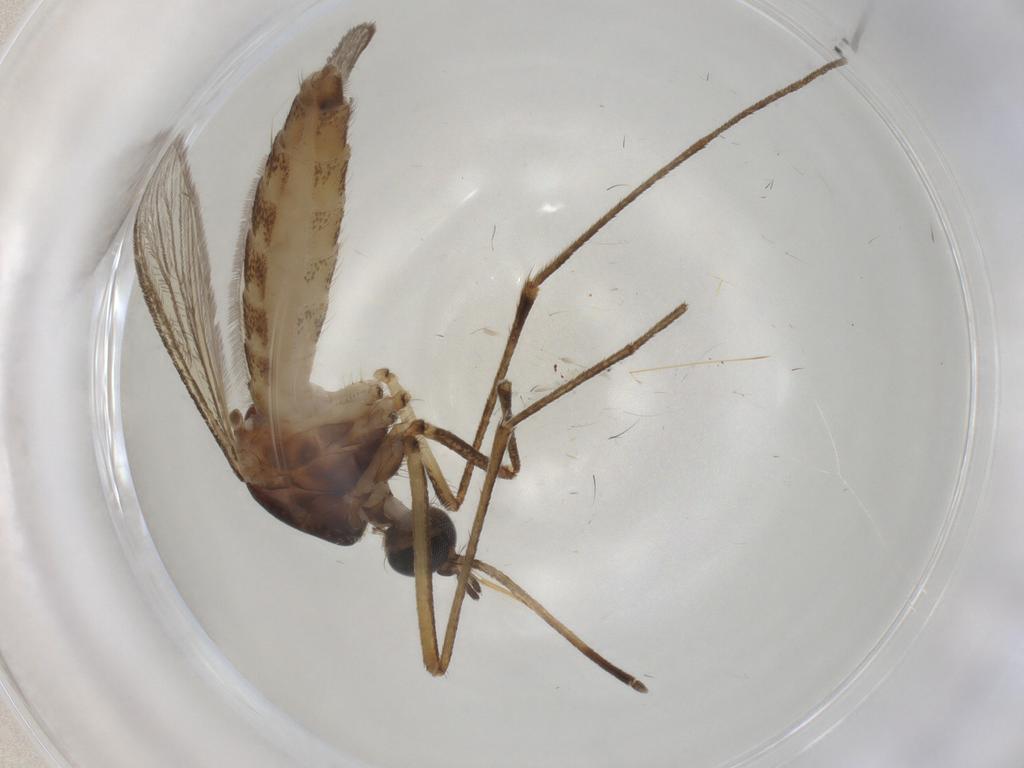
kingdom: Animalia
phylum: Arthropoda
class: Insecta
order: Diptera
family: Chloropidae
